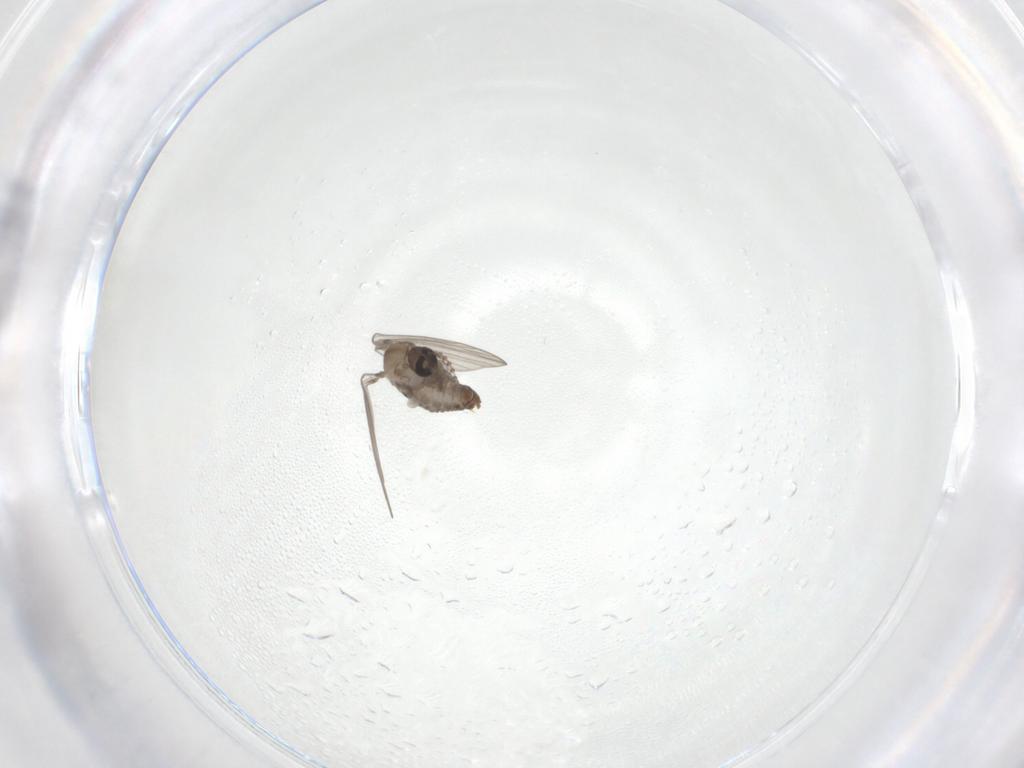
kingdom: Animalia
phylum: Arthropoda
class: Insecta
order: Diptera
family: Psychodidae
